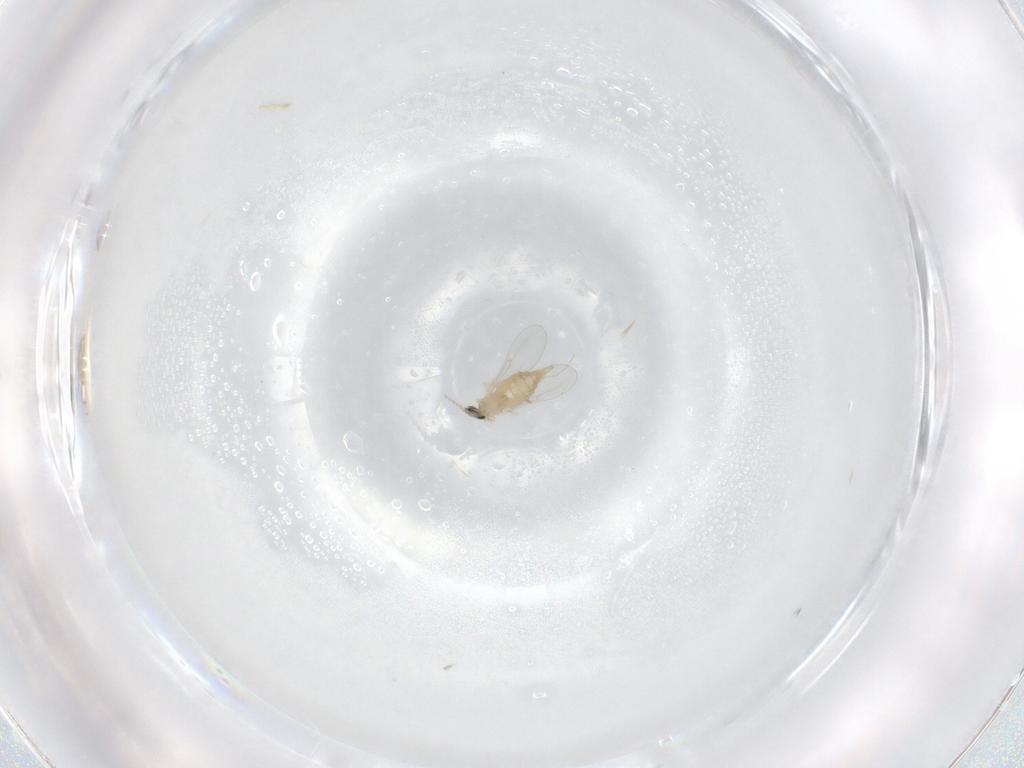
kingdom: Animalia
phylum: Arthropoda
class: Insecta
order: Diptera
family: Cecidomyiidae
